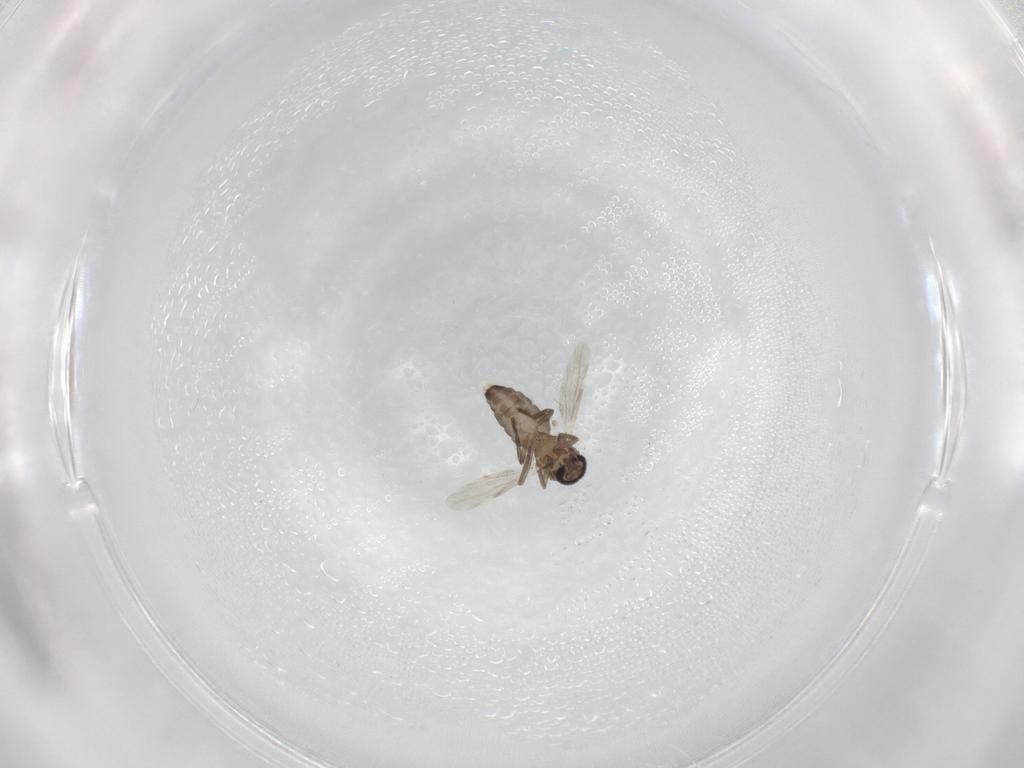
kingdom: Animalia
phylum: Arthropoda
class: Insecta
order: Diptera
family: Ceratopogonidae
